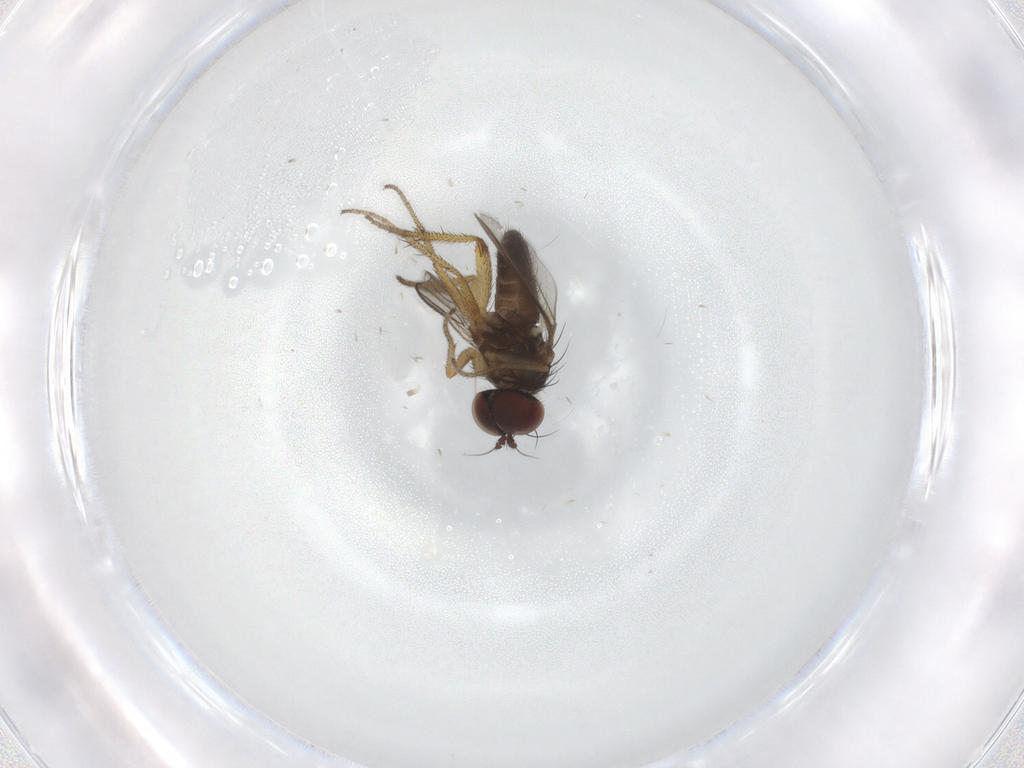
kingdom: Animalia
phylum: Arthropoda
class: Insecta
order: Diptera
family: Dolichopodidae
